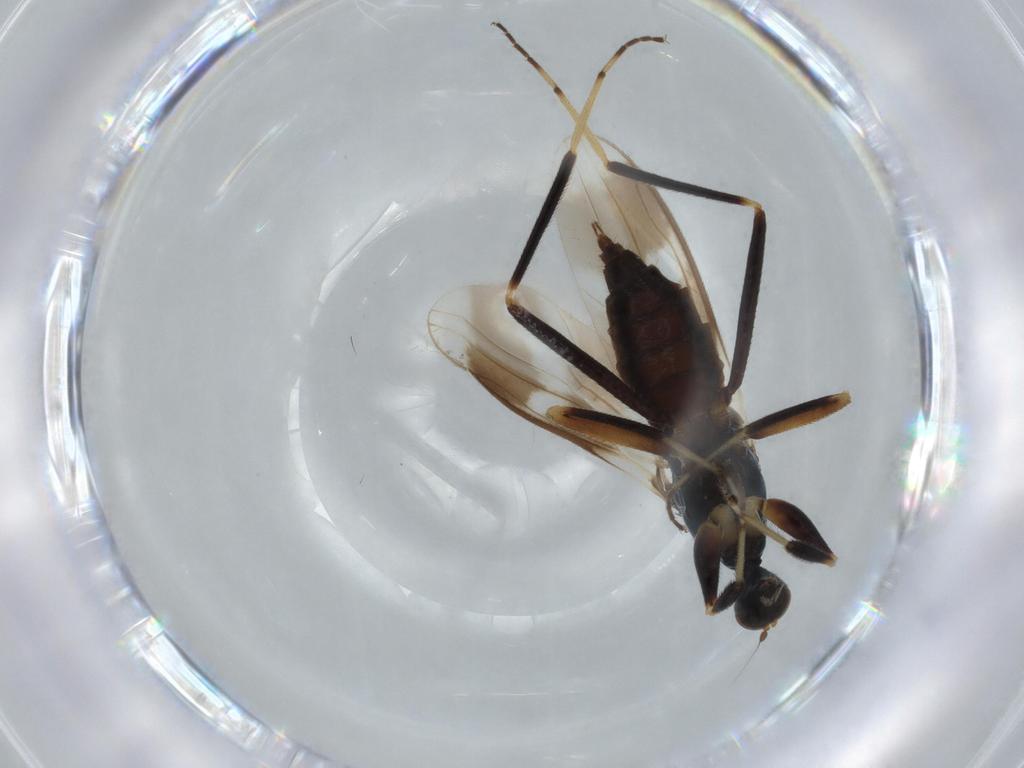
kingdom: Animalia
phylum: Arthropoda
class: Insecta
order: Diptera
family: Hybotidae
